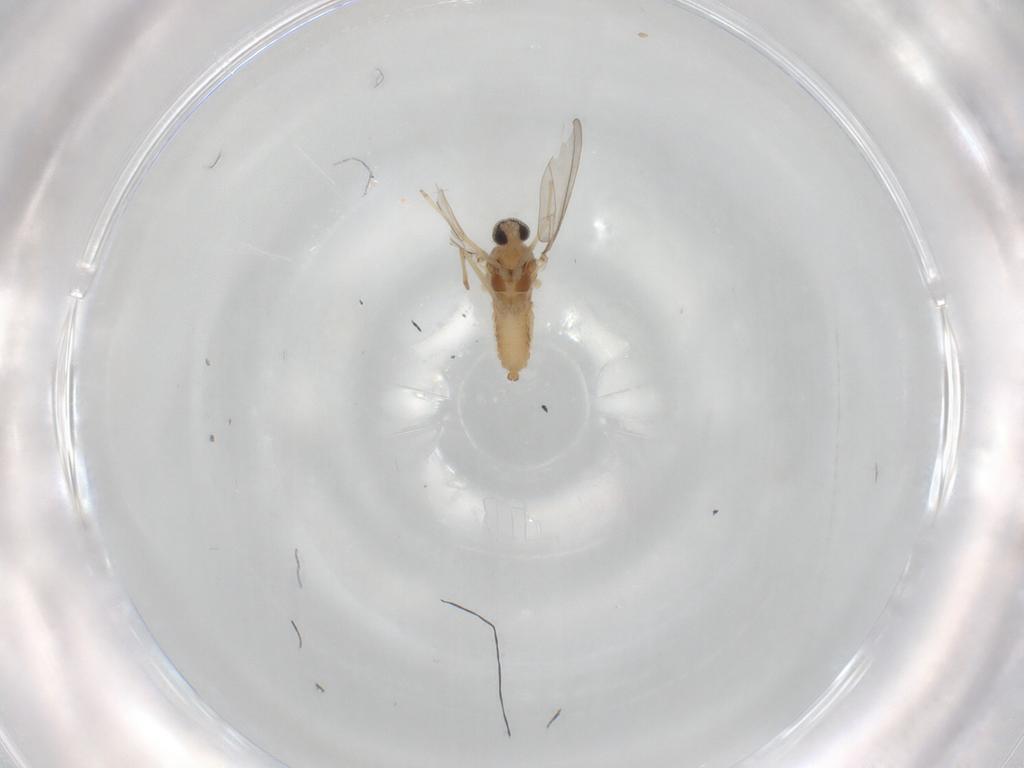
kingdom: Animalia
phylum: Arthropoda
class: Insecta
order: Diptera
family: Cecidomyiidae
